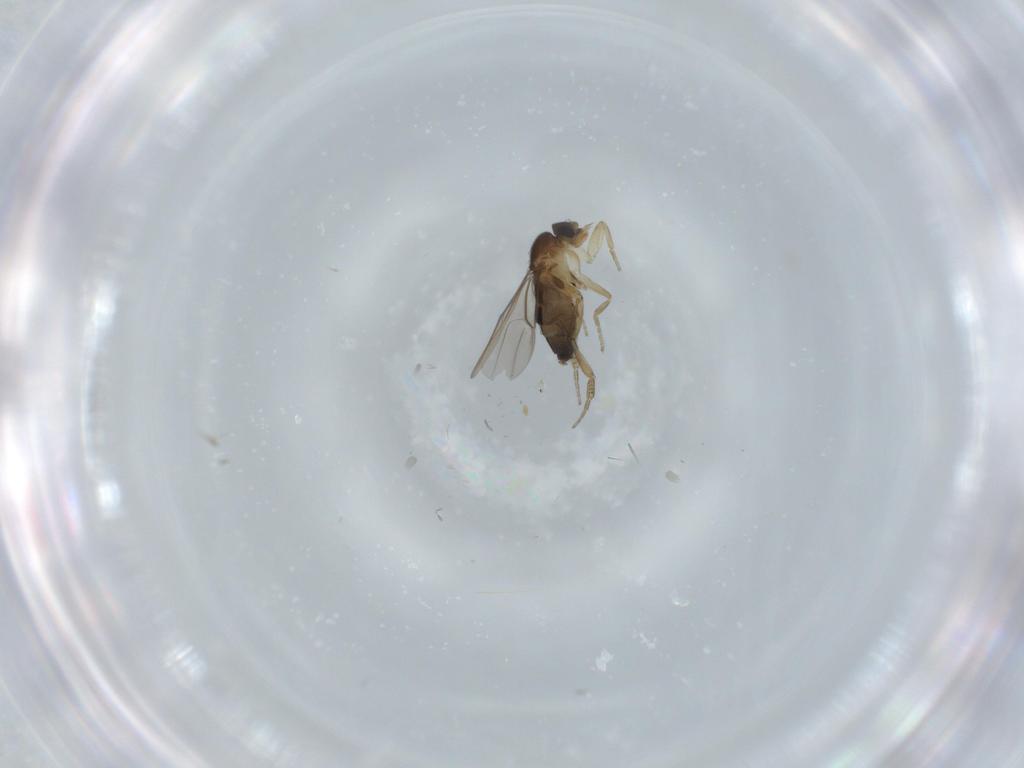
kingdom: Animalia
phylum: Arthropoda
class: Insecta
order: Diptera
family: Phoridae
